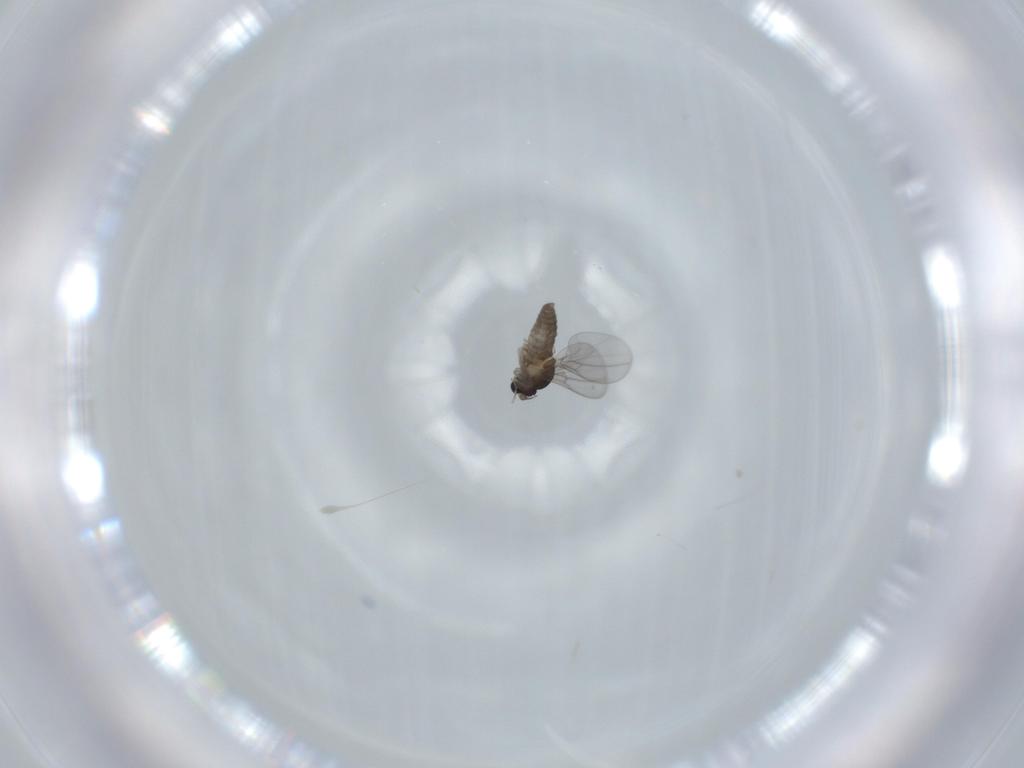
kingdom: Animalia
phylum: Arthropoda
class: Insecta
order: Diptera
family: Cecidomyiidae
